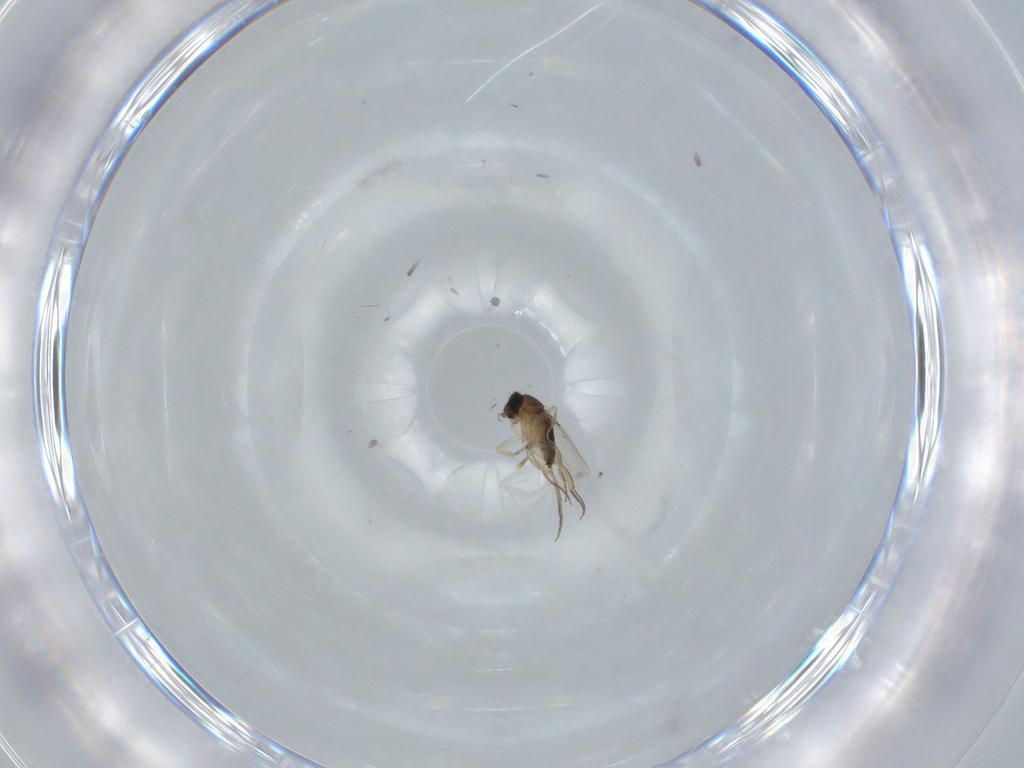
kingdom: Animalia
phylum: Arthropoda
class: Insecta
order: Diptera
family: Phoridae
